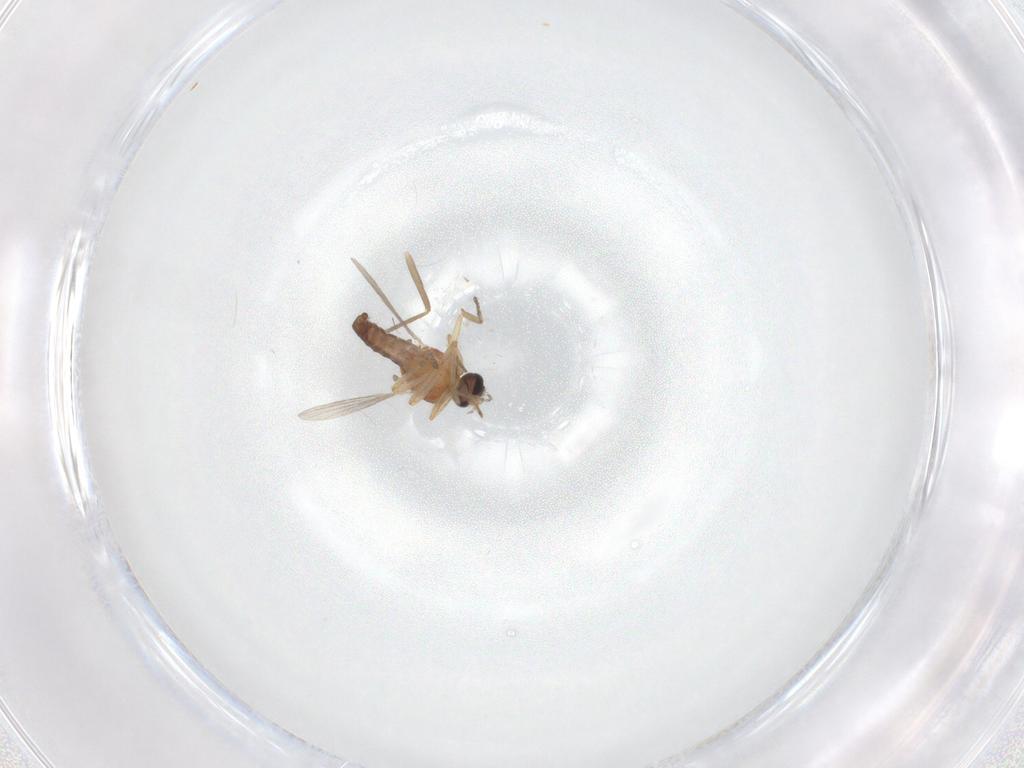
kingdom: Animalia
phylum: Arthropoda
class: Insecta
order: Diptera
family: Ceratopogonidae
